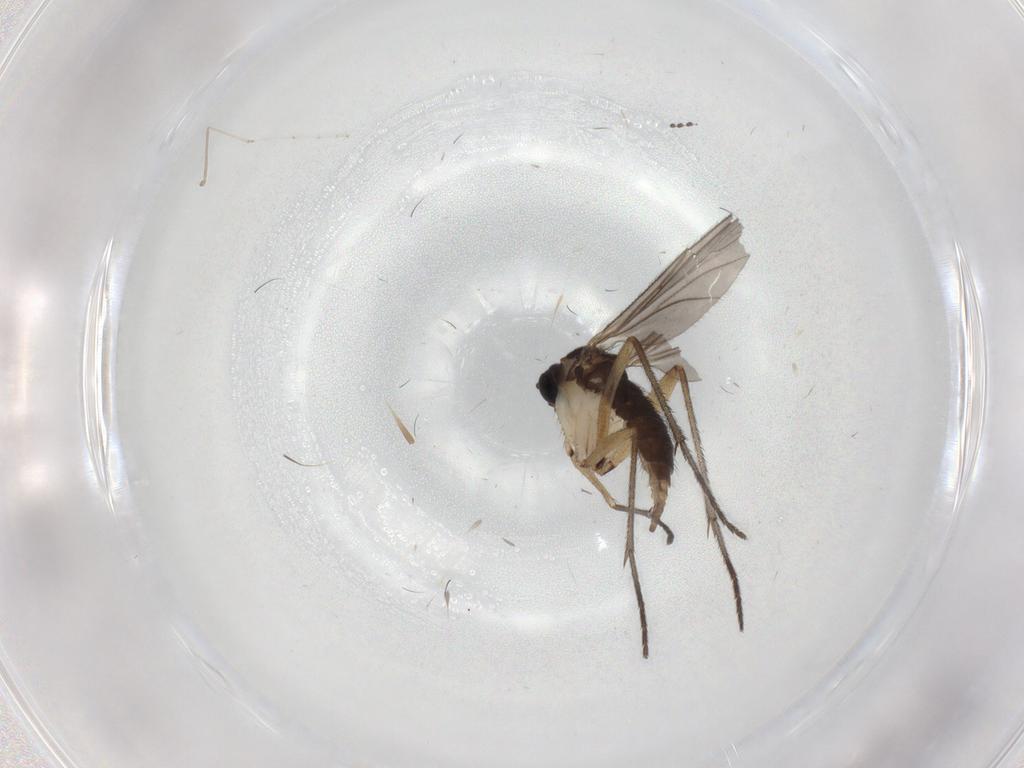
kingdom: Animalia
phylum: Arthropoda
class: Insecta
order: Diptera
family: Sciaridae
